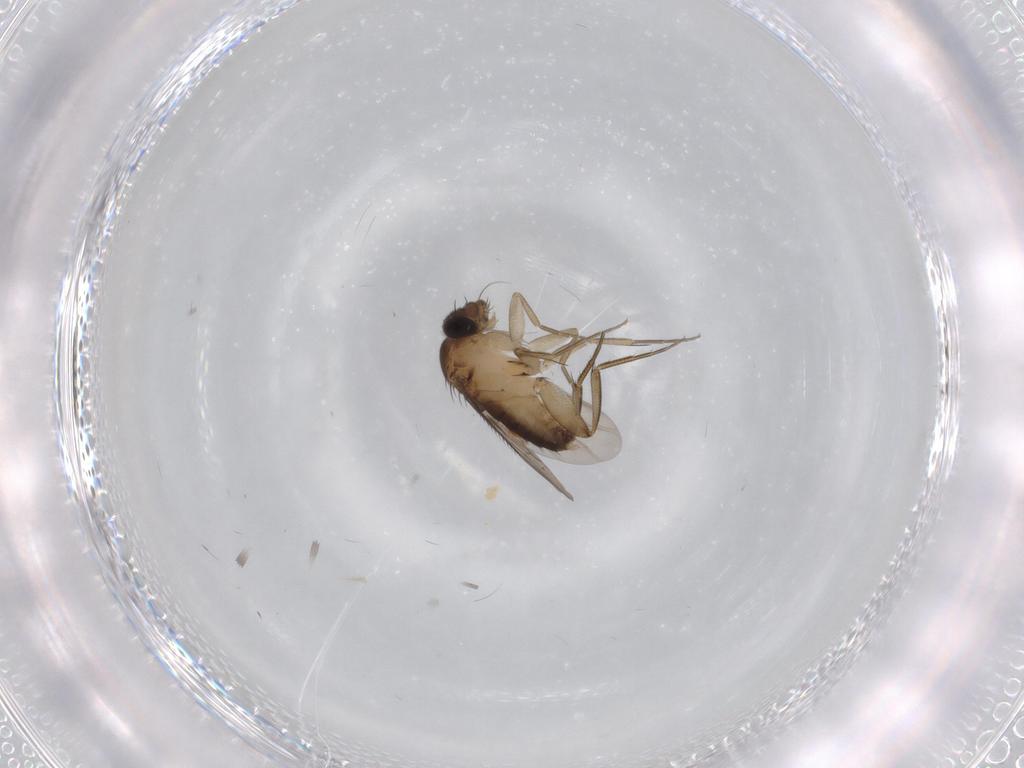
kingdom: Animalia
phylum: Arthropoda
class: Insecta
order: Diptera
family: Psychodidae
